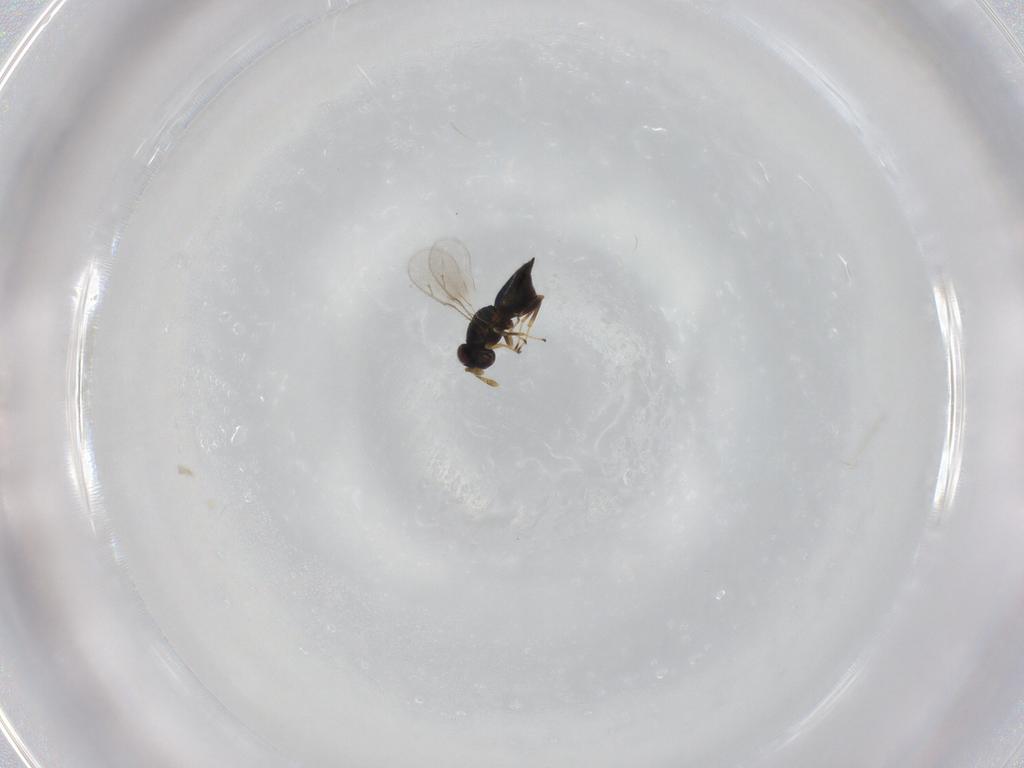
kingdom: Animalia
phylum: Arthropoda
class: Insecta
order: Hymenoptera
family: Pteromalidae
